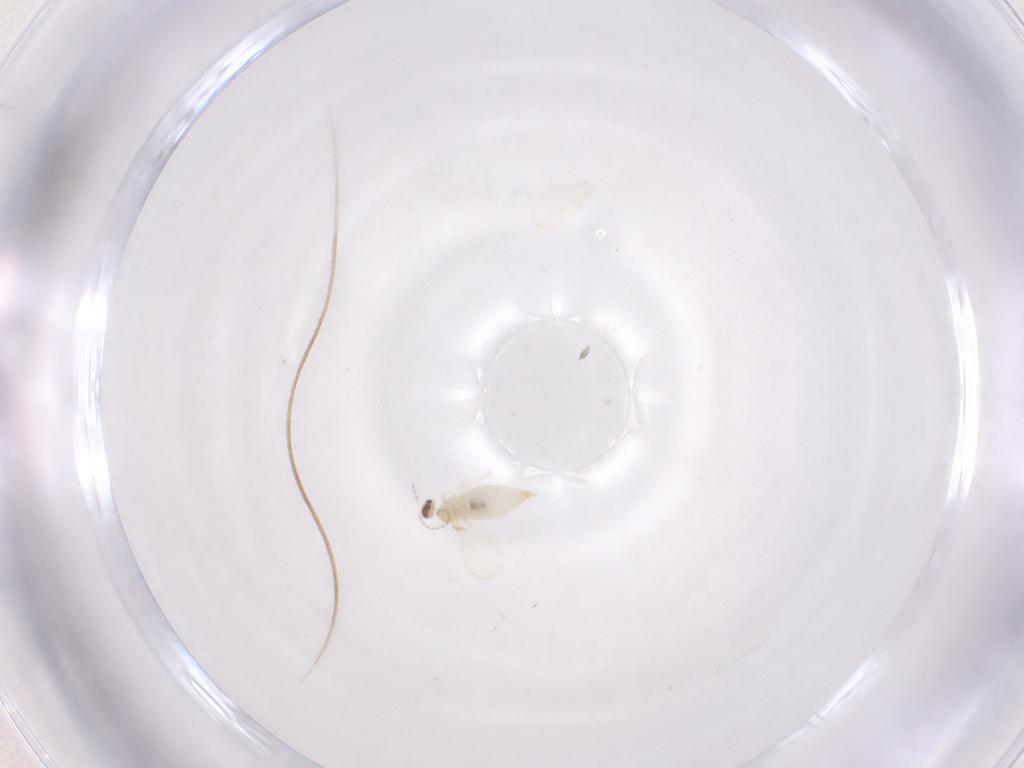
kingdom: Animalia
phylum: Arthropoda
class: Insecta
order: Diptera
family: Cecidomyiidae
